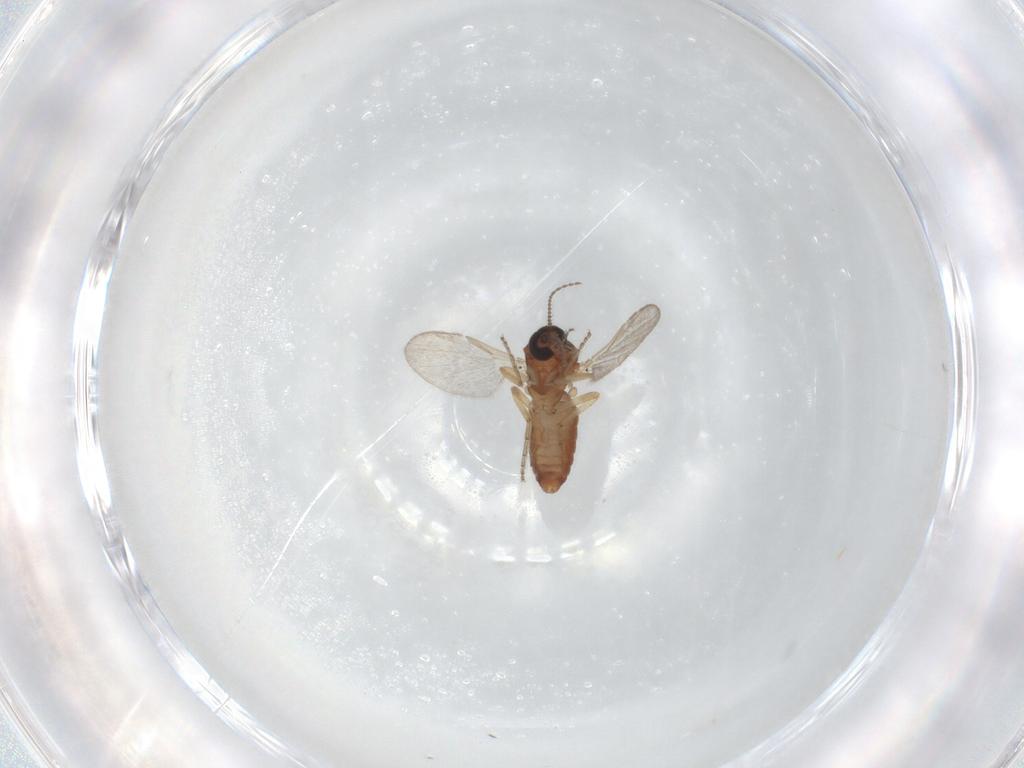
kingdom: Animalia
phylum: Arthropoda
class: Insecta
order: Diptera
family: Ceratopogonidae
